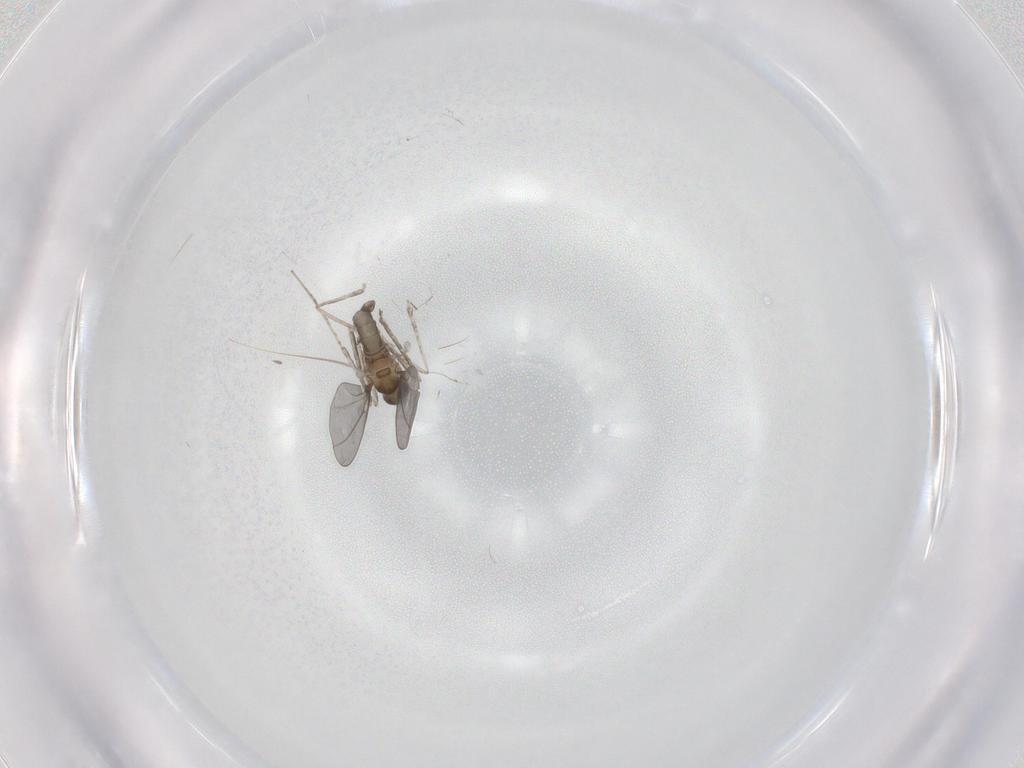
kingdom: Animalia
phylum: Arthropoda
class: Insecta
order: Diptera
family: Cecidomyiidae
